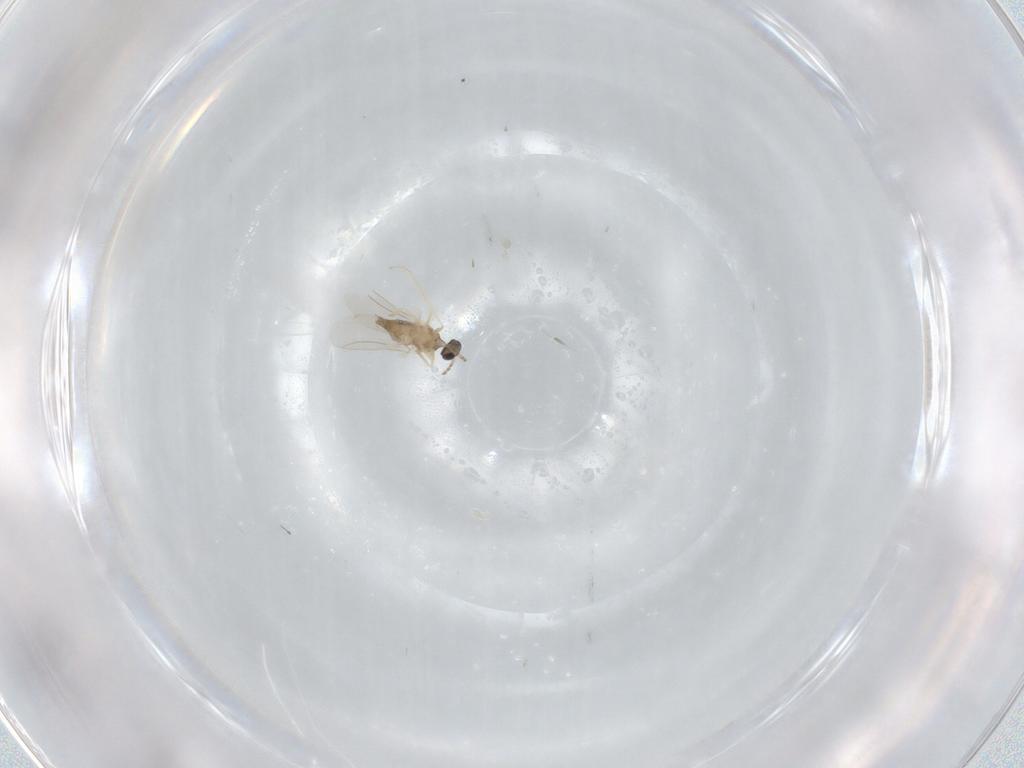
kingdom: Animalia
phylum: Arthropoda
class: Insecta
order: Diptera
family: Cecidomyiidae
